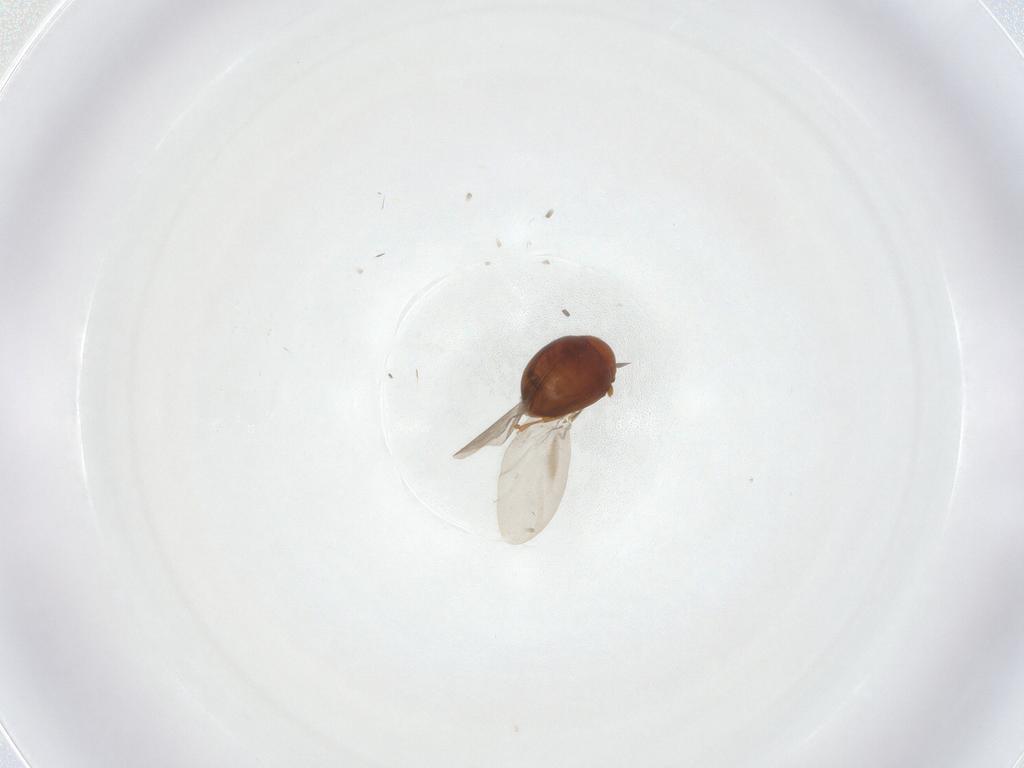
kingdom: Animalia
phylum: Arthropoda
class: Insecta
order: Coleoptera
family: Chrysomelidae
